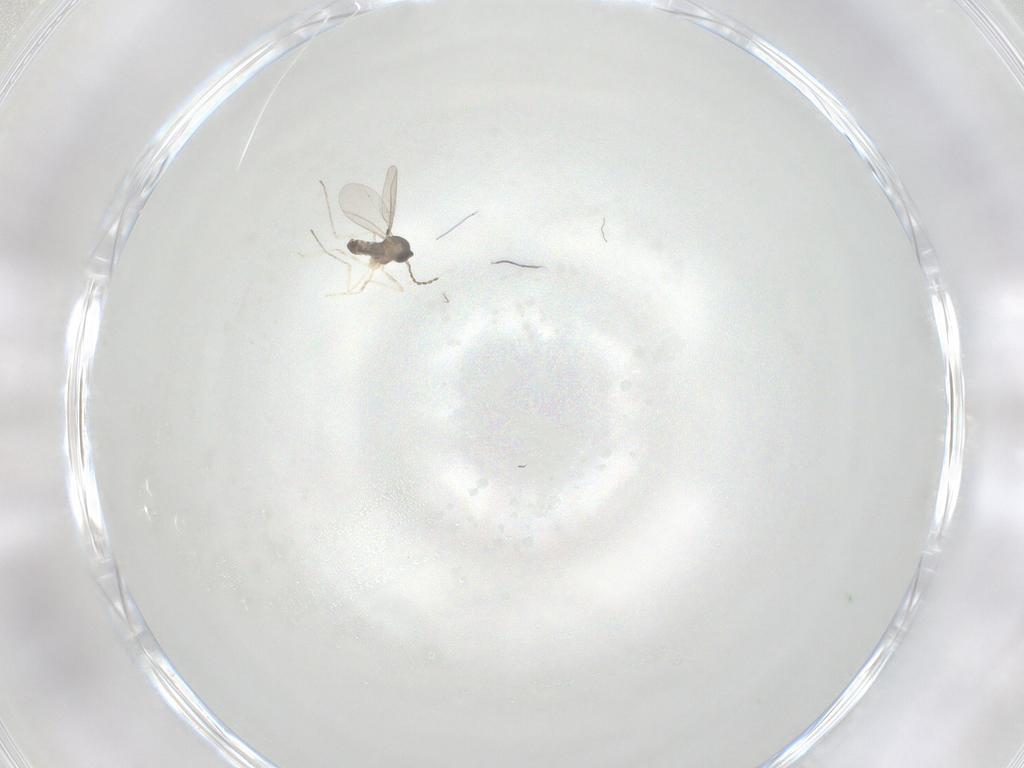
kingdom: Animalia
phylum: Arthropoda
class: Insecta
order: Diptera
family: Cecidomyiidae
